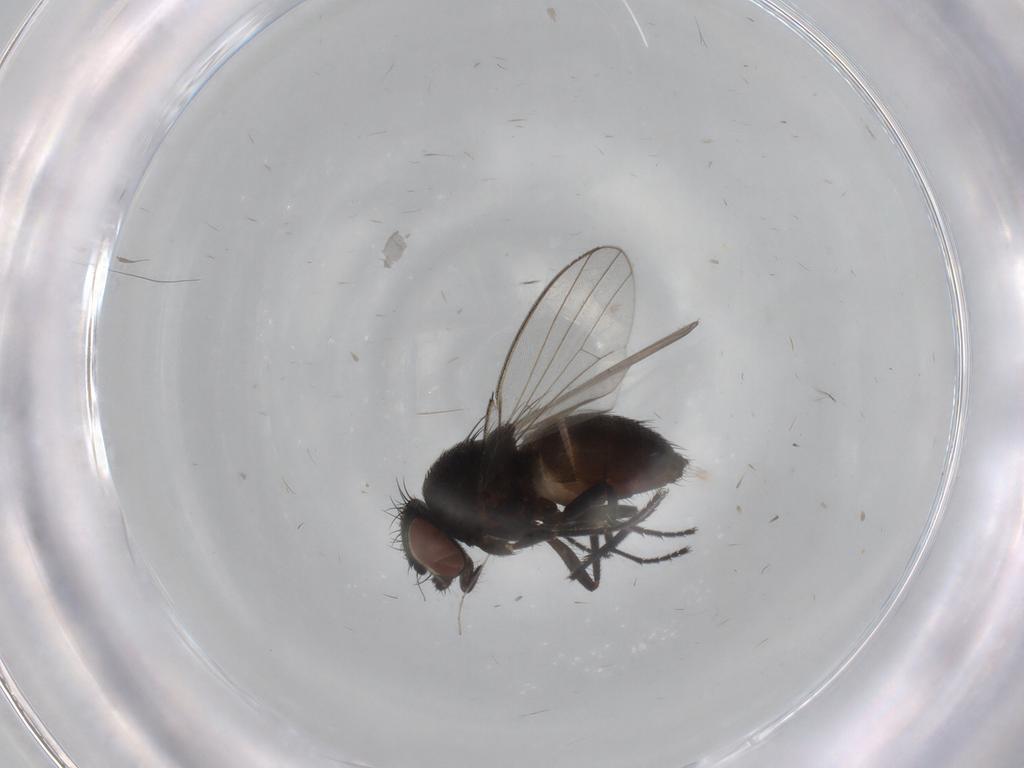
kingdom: Animalia
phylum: Arthropoda
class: Insecta
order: Diptera
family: Milichiidae
